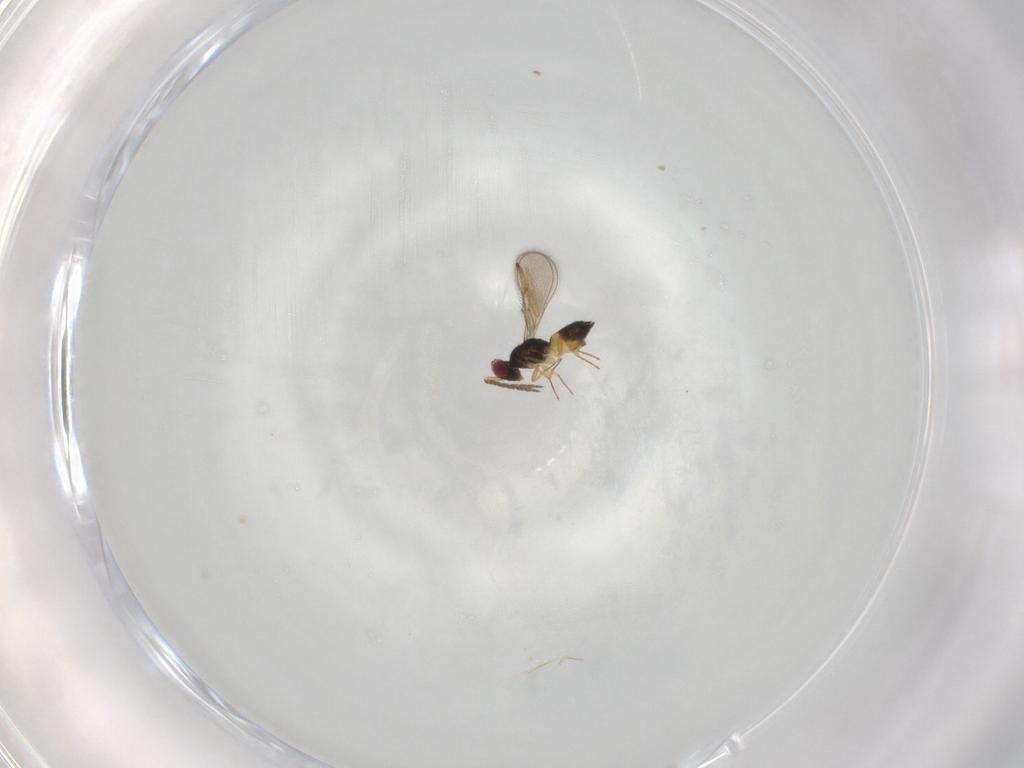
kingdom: Animalia
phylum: Arthropoda
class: Insecta
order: Hymenoptera
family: Eulophidae
